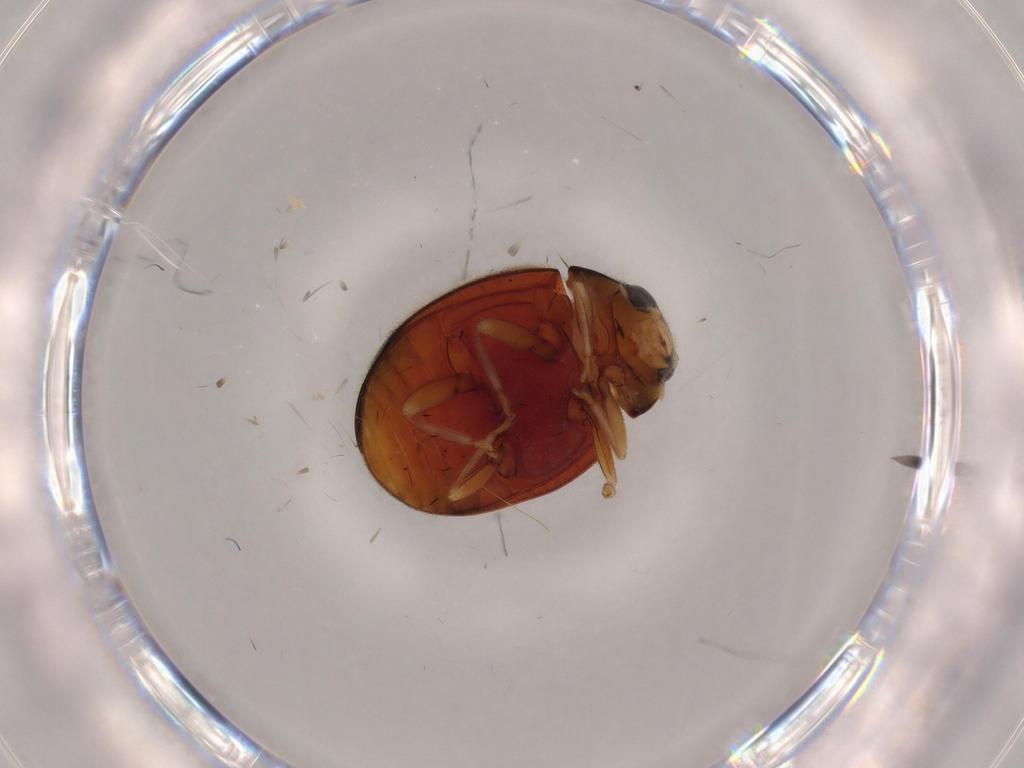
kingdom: Animalia
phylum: Arthropoda
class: Insecta
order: Coleoptera
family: Coccinellidae
